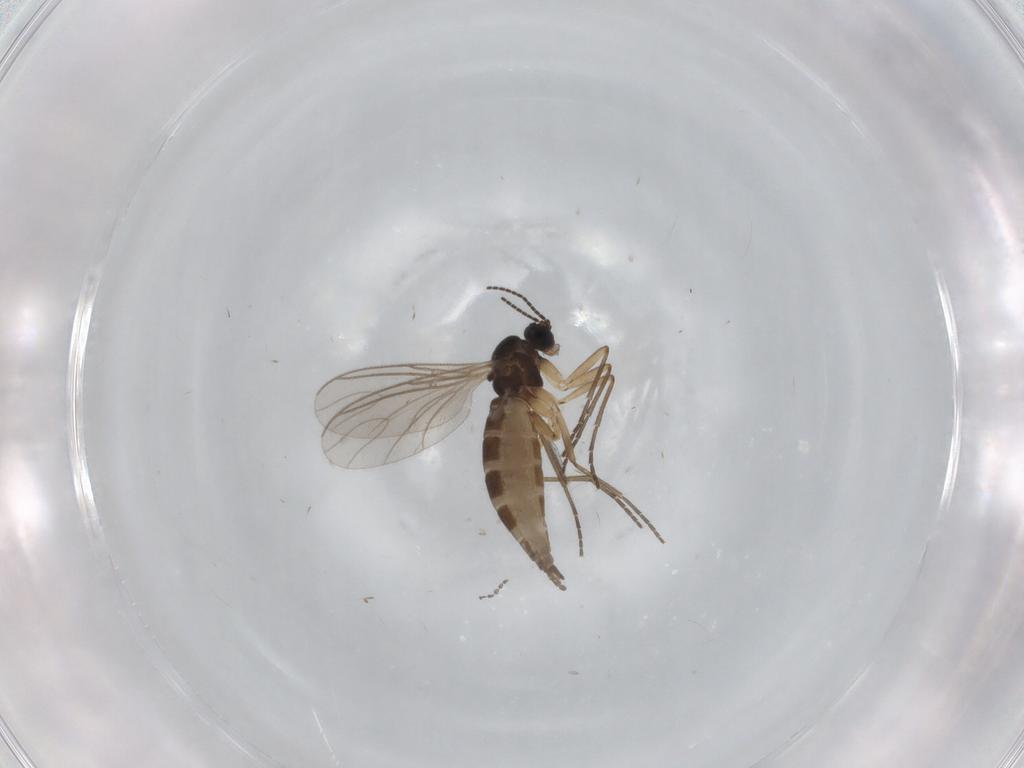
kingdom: Animalia
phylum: Arthropoda
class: Insecta
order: Diptera
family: Ceratopogonidae
